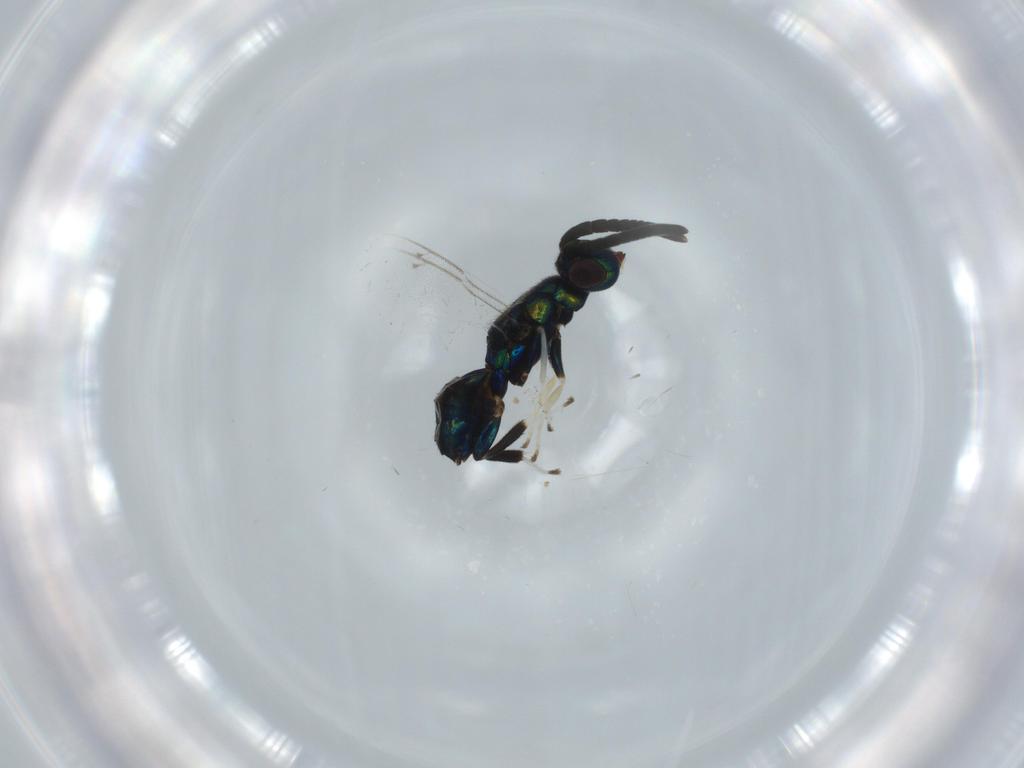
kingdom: Animalia
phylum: Arthropoda
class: Insecta
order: Hymenoptera
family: Eupelmidae
